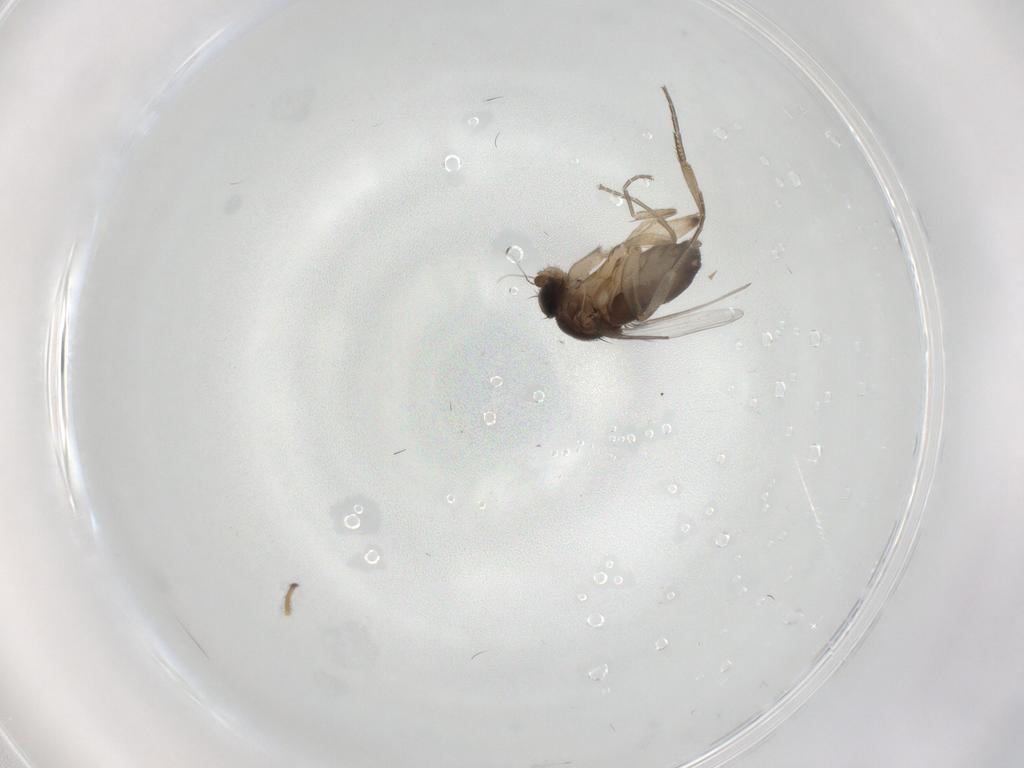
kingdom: Animalia
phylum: Arthropoda
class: Insecta
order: Diptera
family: Phoridae
